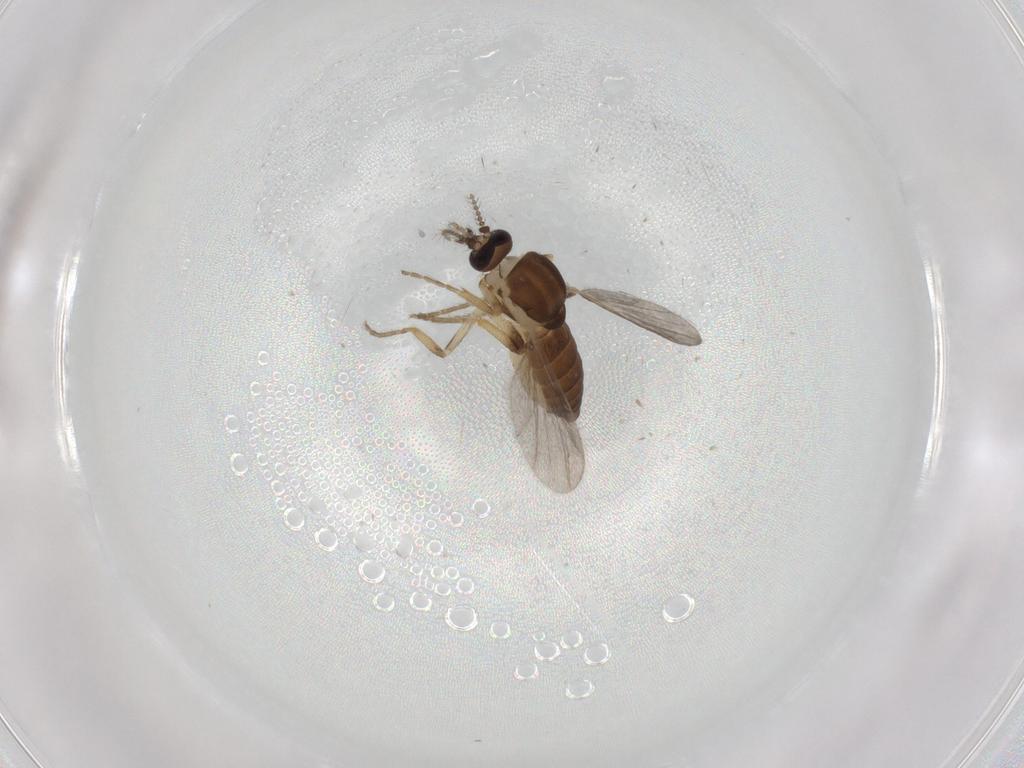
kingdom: Animalia
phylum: Arthropoda
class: Insecta
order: Diptera
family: Ceratopogonidae
